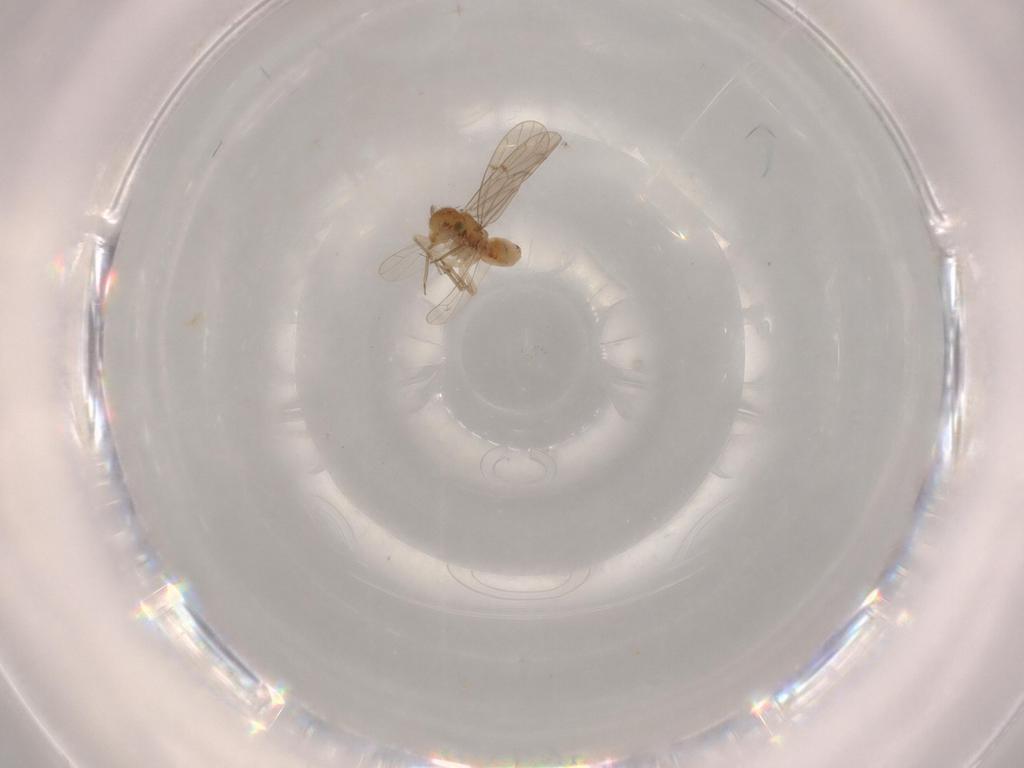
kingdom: Animalia
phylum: Arthropoda
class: Insecta
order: Psocodea
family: Ectopsocidae
